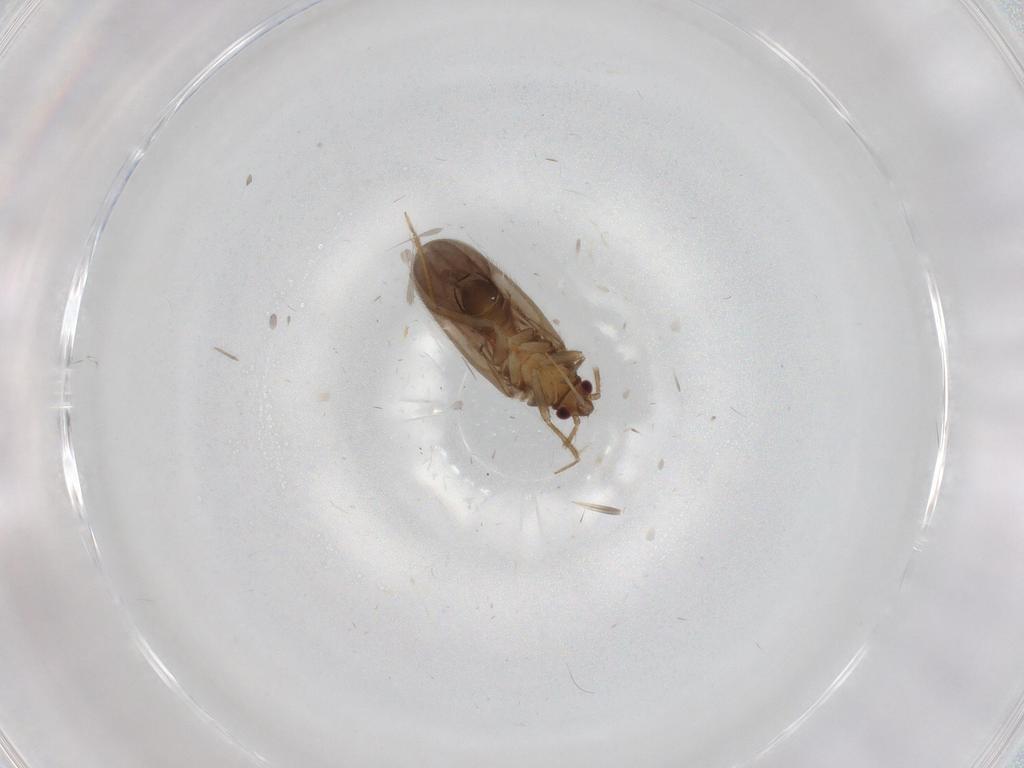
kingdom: Animalia
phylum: Arthropoda
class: Insecta
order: Hemiptera
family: Ceratocombidae
